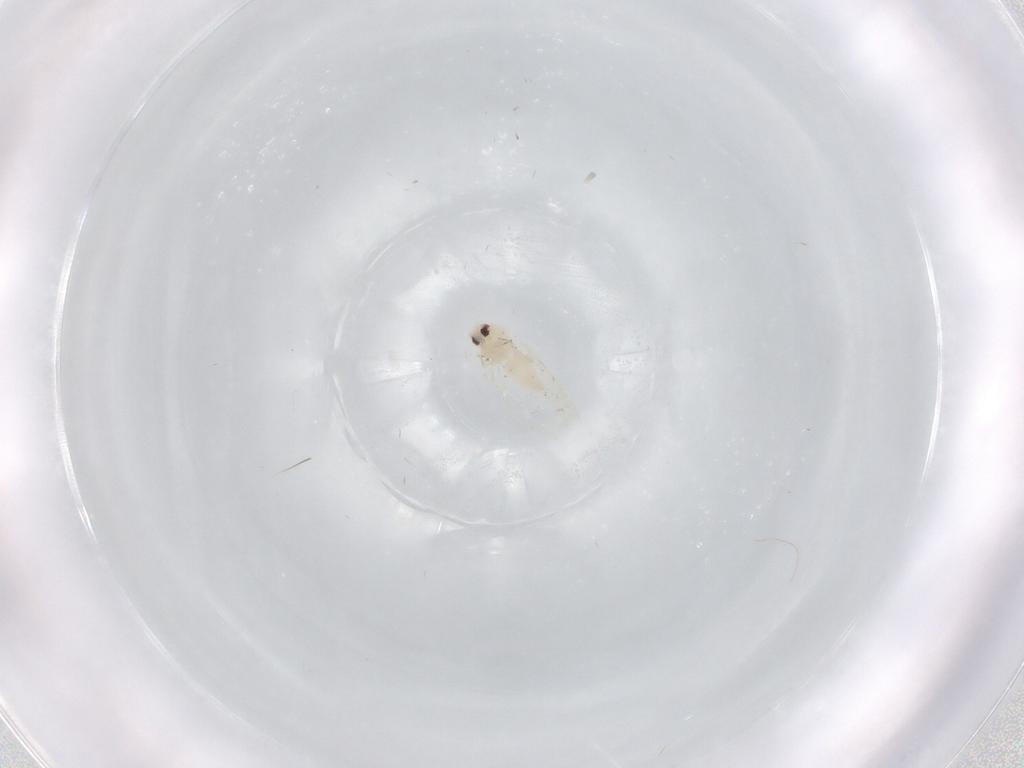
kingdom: Animalia
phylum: Arthropoda
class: Insecta
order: Hemiptera
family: Aleyrodidae
